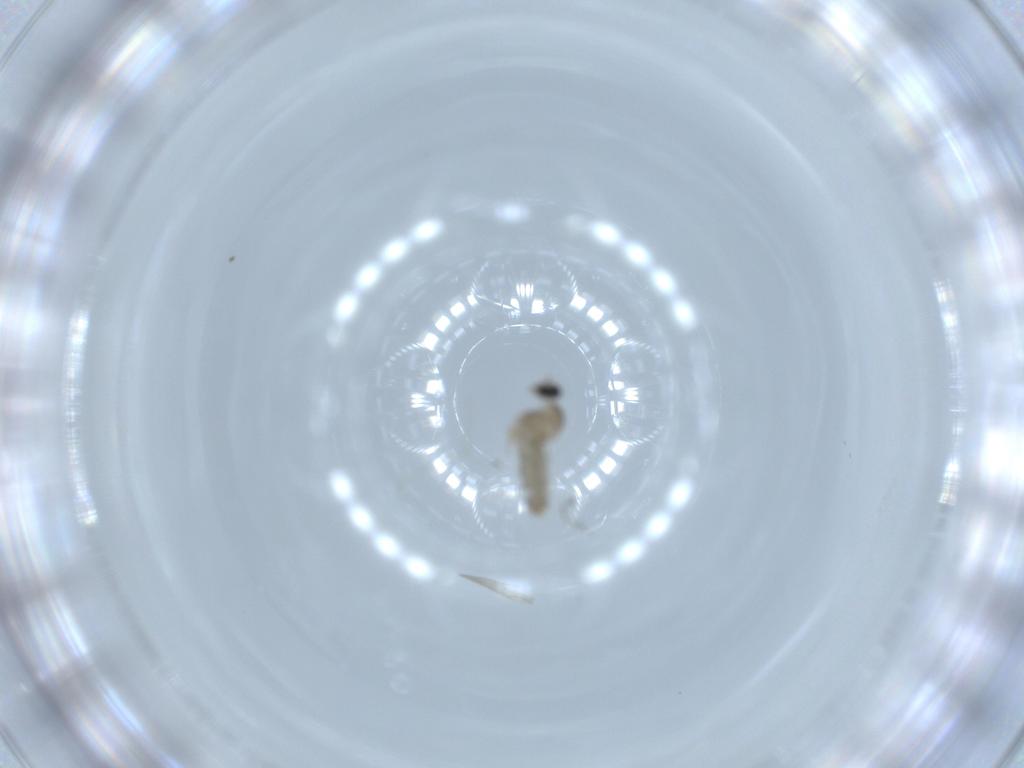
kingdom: Animalia
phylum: Arthropoda
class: Insecta
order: Diptera
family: Cecidomyiidae
